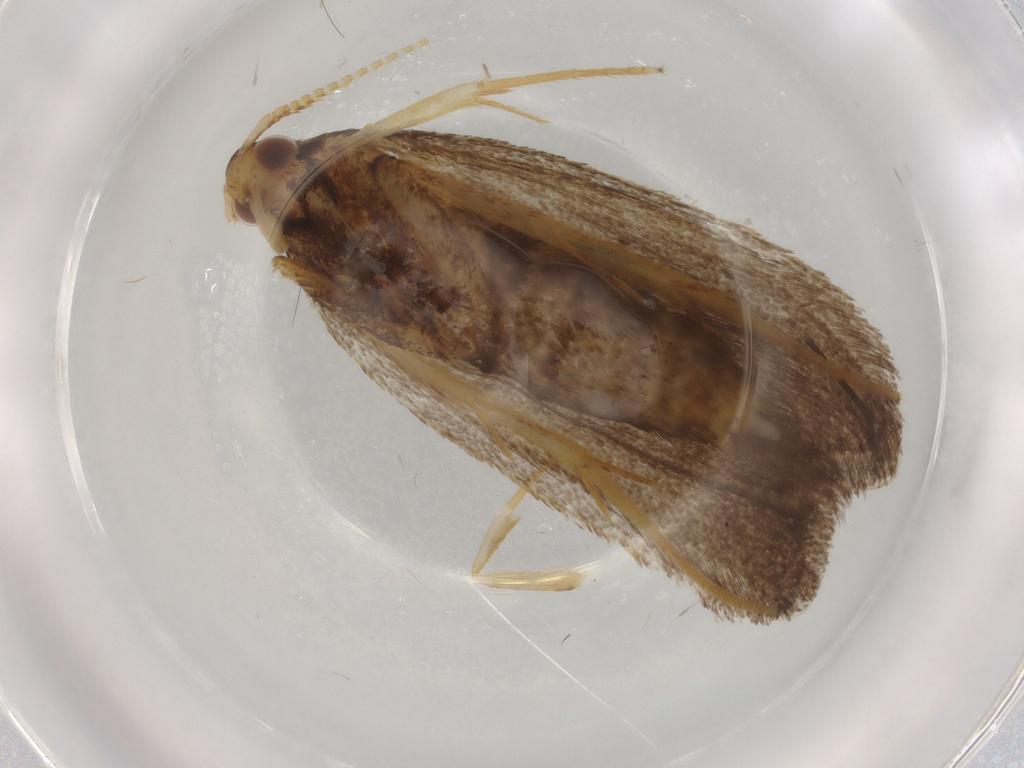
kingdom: Animalia
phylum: Arthropoda
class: Insecta
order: Lepidoptera
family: Lecithoceridae
